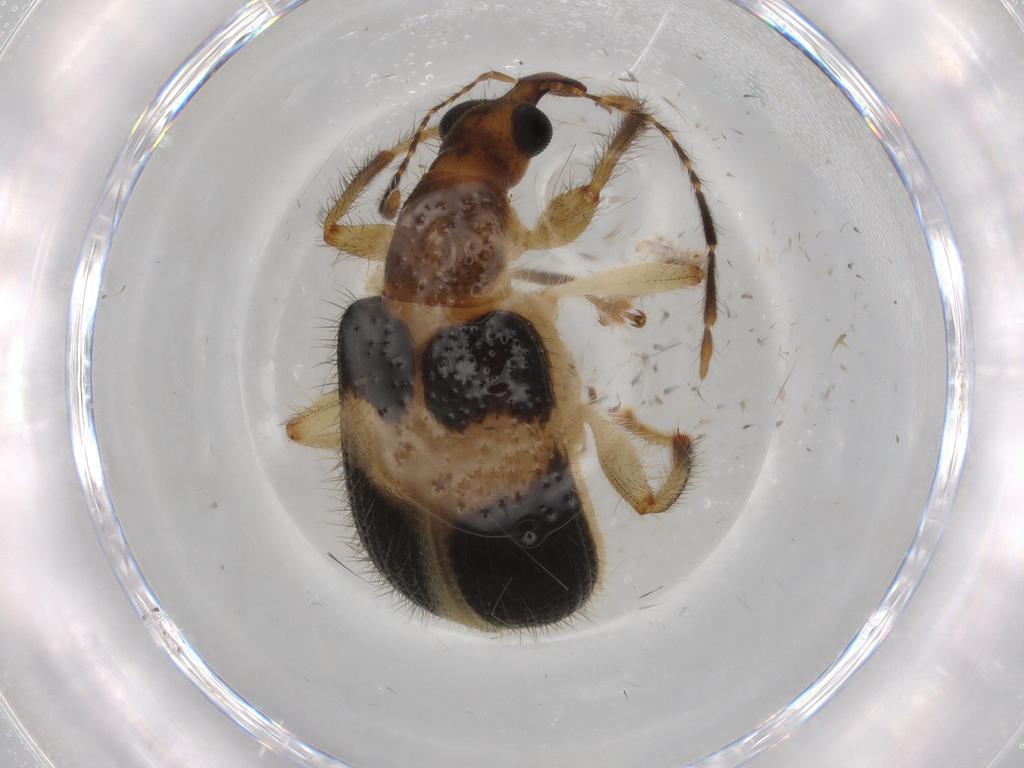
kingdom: Animalia
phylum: Arthropoda
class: Insecta
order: Coleoptera
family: Attelabidae
